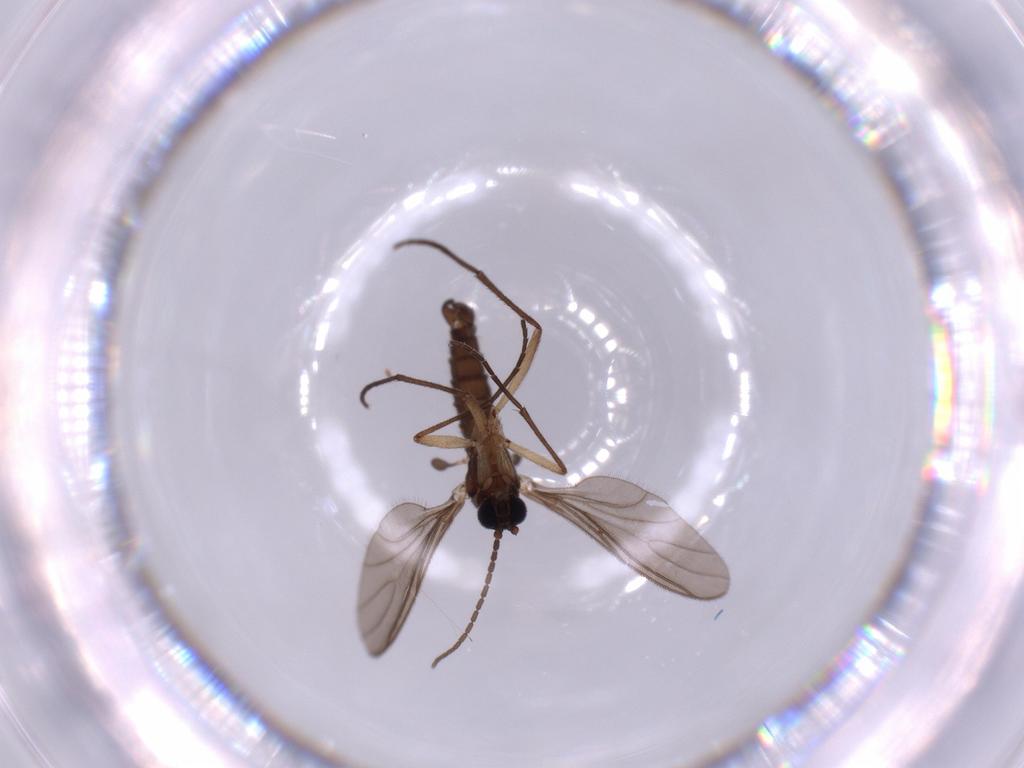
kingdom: Animalia
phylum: Arthropoda
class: Insecta
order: Diptera
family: Sciaridae
